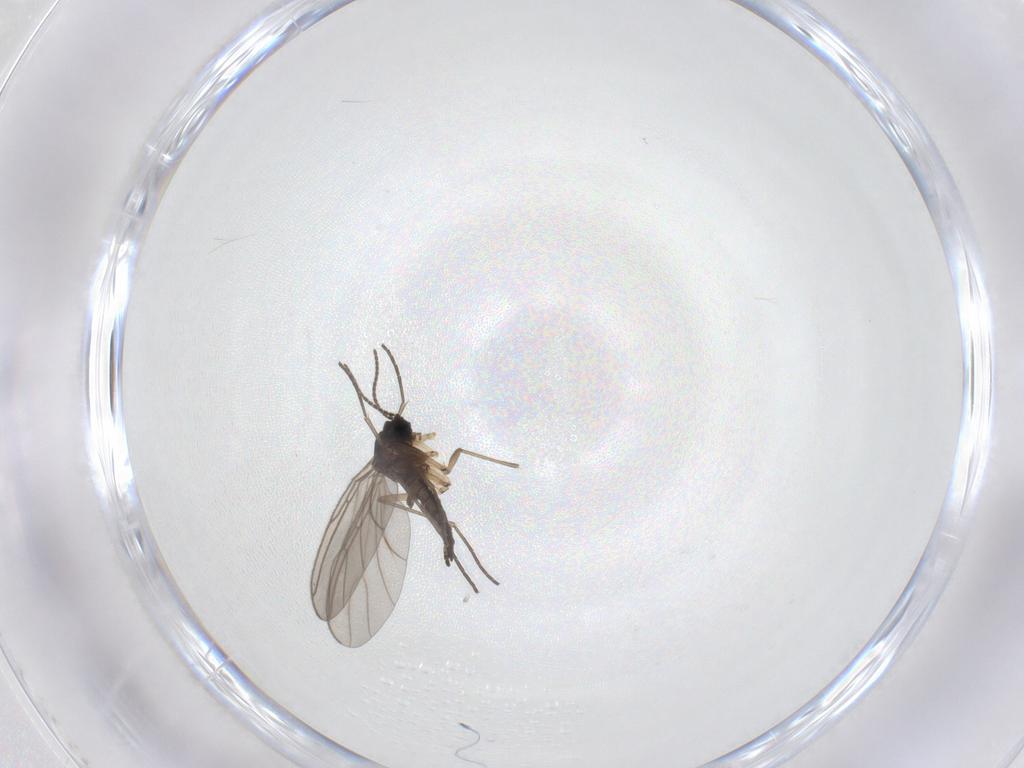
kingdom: Animalia
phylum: Arthropoda
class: Insecta
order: Diptera
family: Sciaridae
